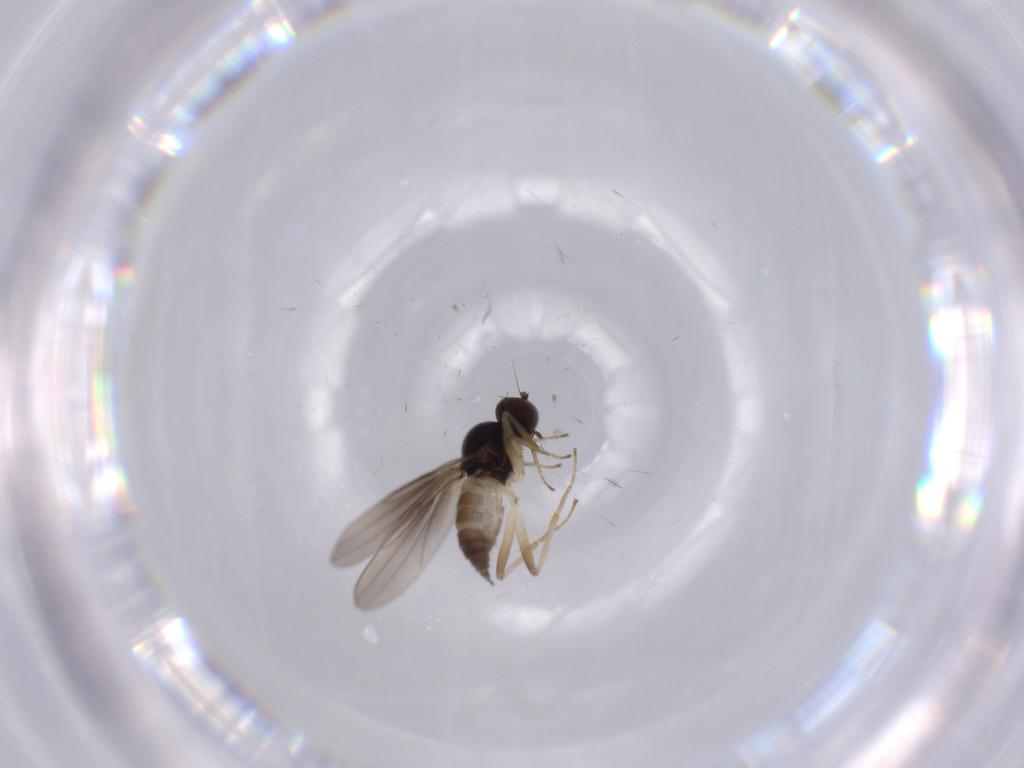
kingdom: Animalia
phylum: Arthropoda
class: Insecta
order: Diptera
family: Hybotidae
